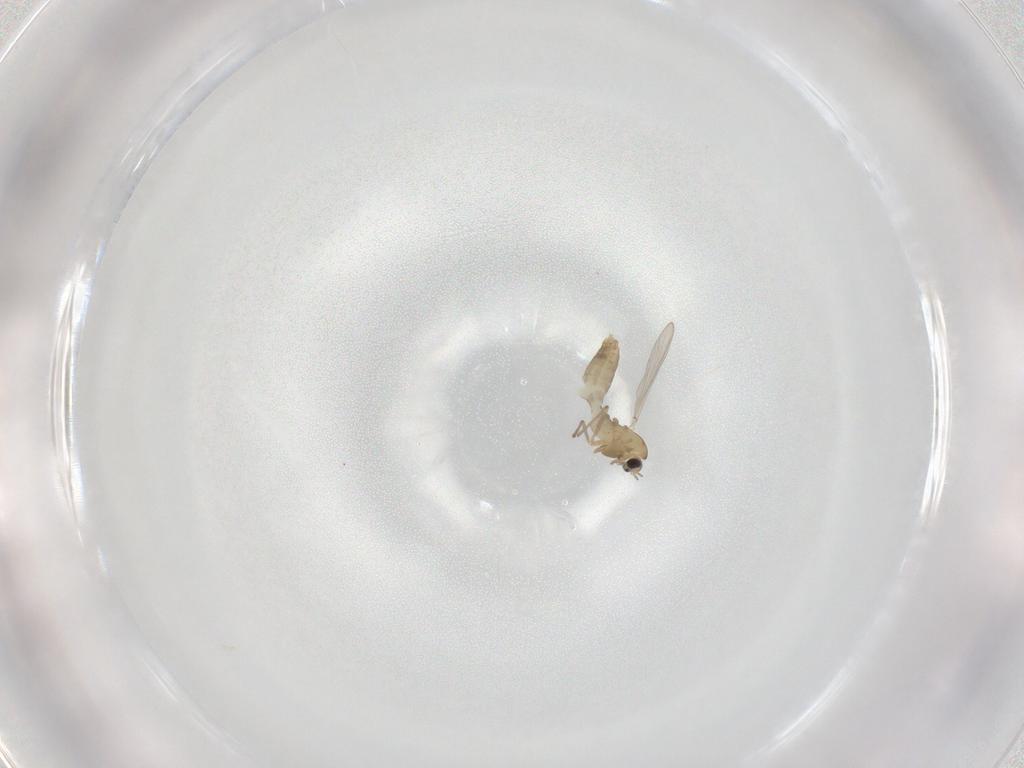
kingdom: Animalia
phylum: Arthropoda
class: Insecta
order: Diptera
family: Chironomidae
